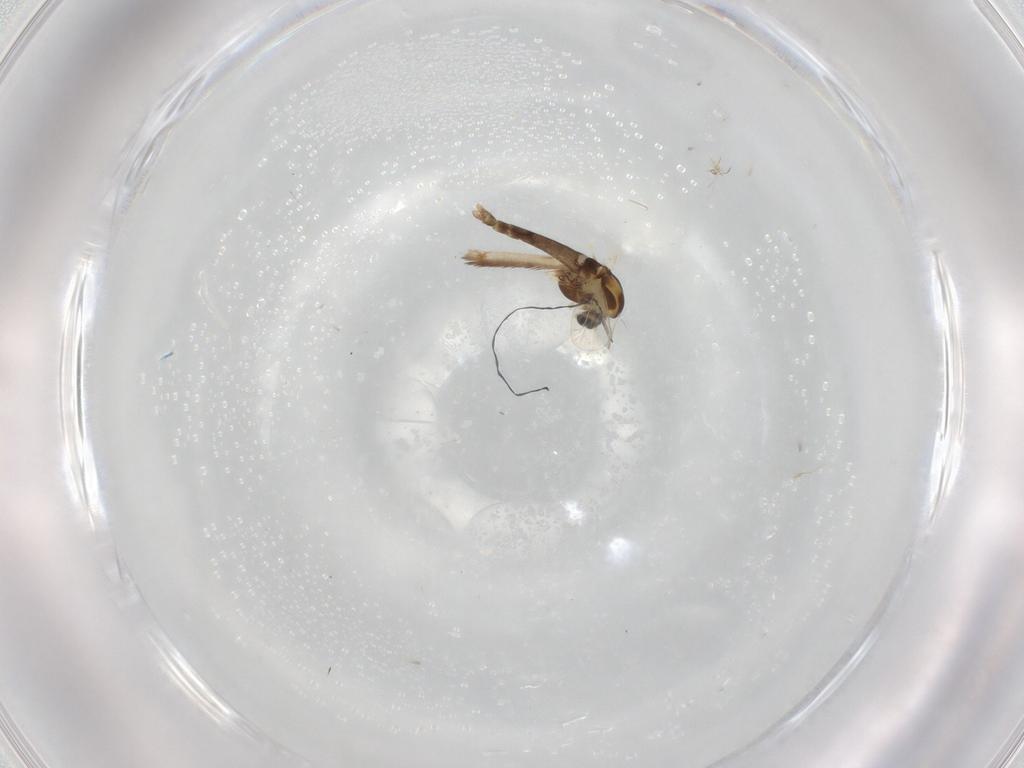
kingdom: Animalia
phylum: Arthropoda
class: Insecta
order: Diptera
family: Chironomidae
